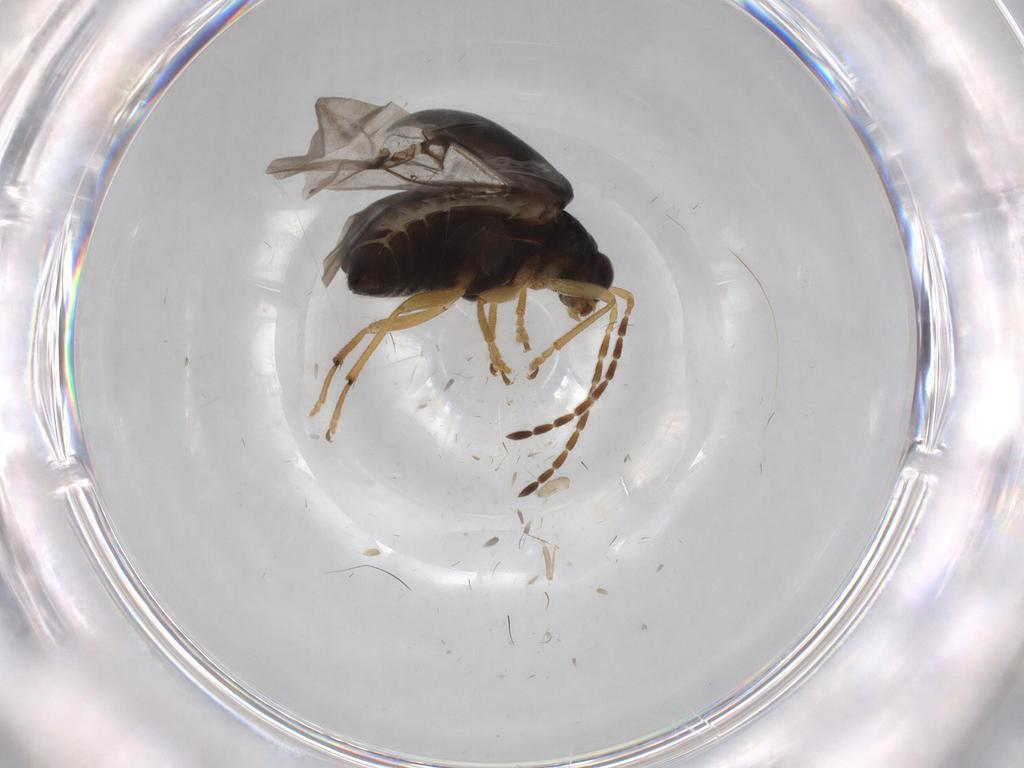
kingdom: Animalia
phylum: Arthropoda
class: Insecta
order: Coleoptera
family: Chrysomelidae
